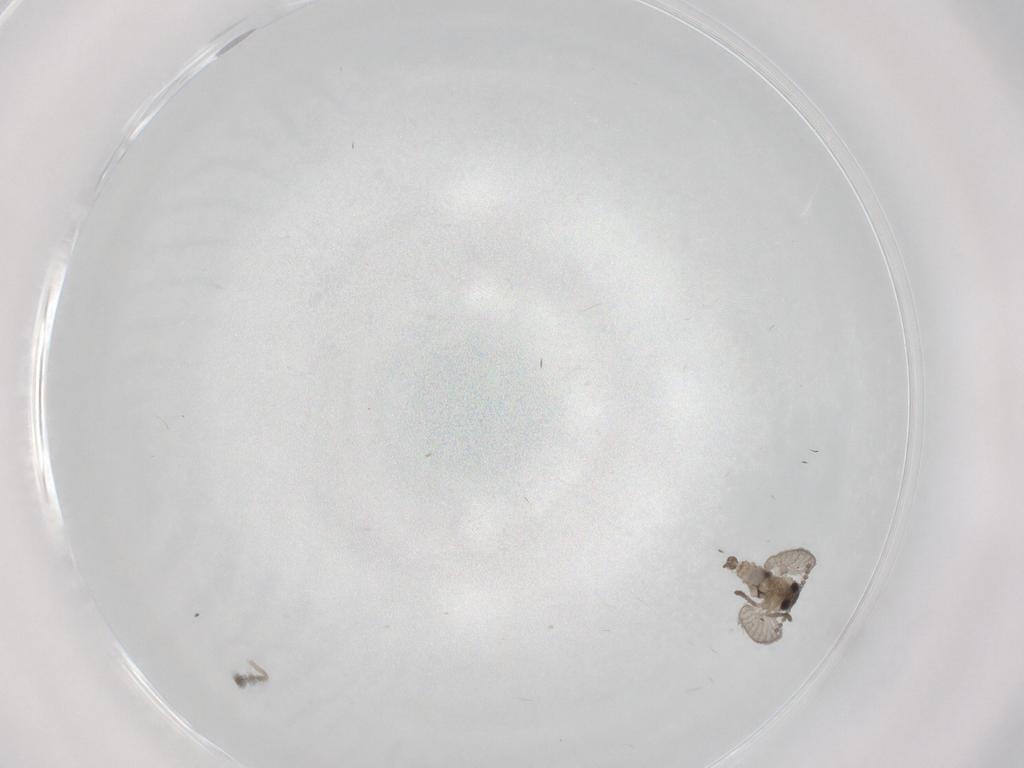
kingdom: Animalia
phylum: Arthropoda
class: Insecta
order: Diptera
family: Psychodidae
